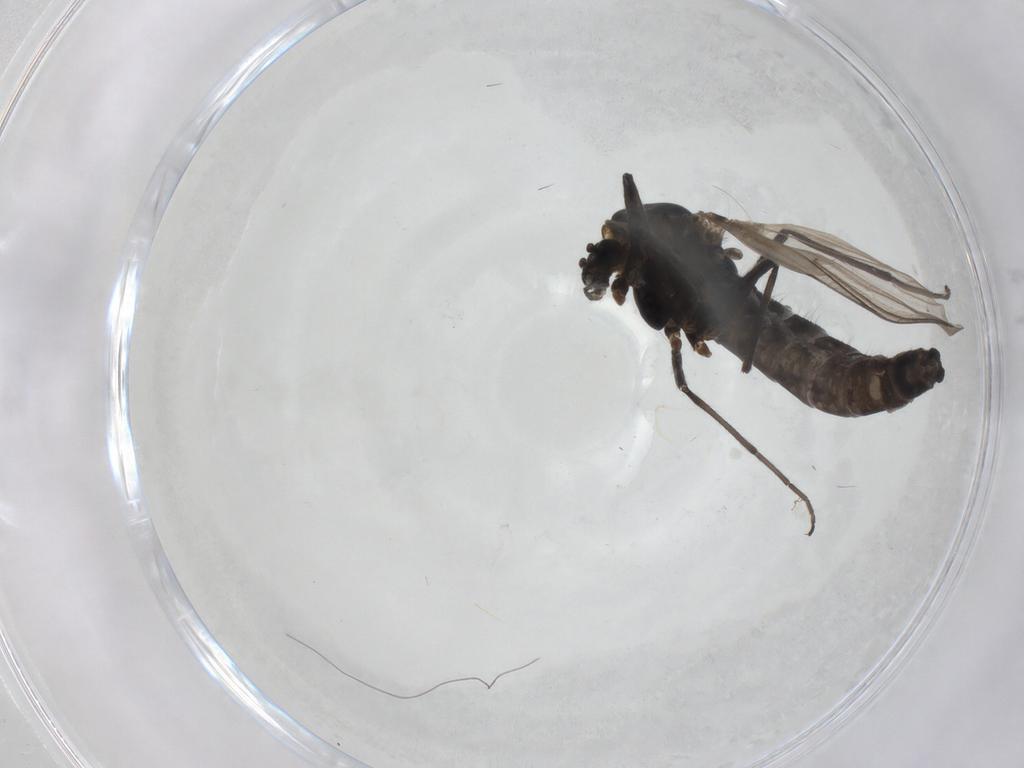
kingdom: Animalia
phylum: Arthropoda
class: Insecta
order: Diptera
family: Chironomidae
